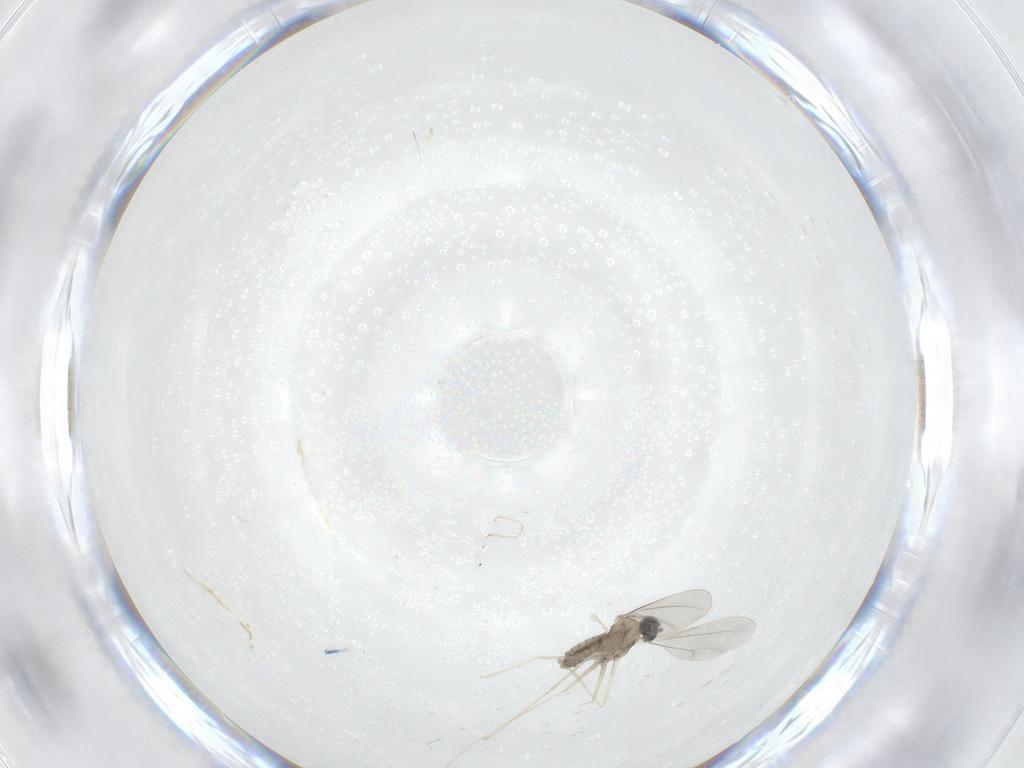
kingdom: Animalia
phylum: Arthropoda
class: Insecta
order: Diptera
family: Cecidomyiidae
